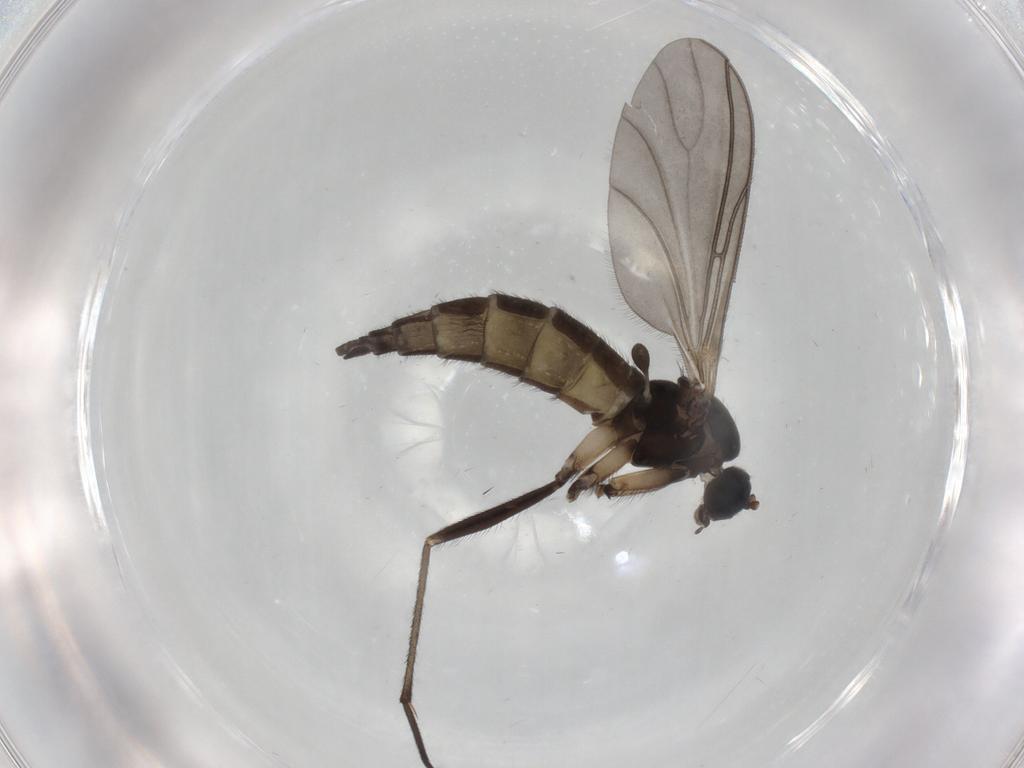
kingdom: Animalia
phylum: Arthropoda
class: Insecta
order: Diptera
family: Sciaridae
